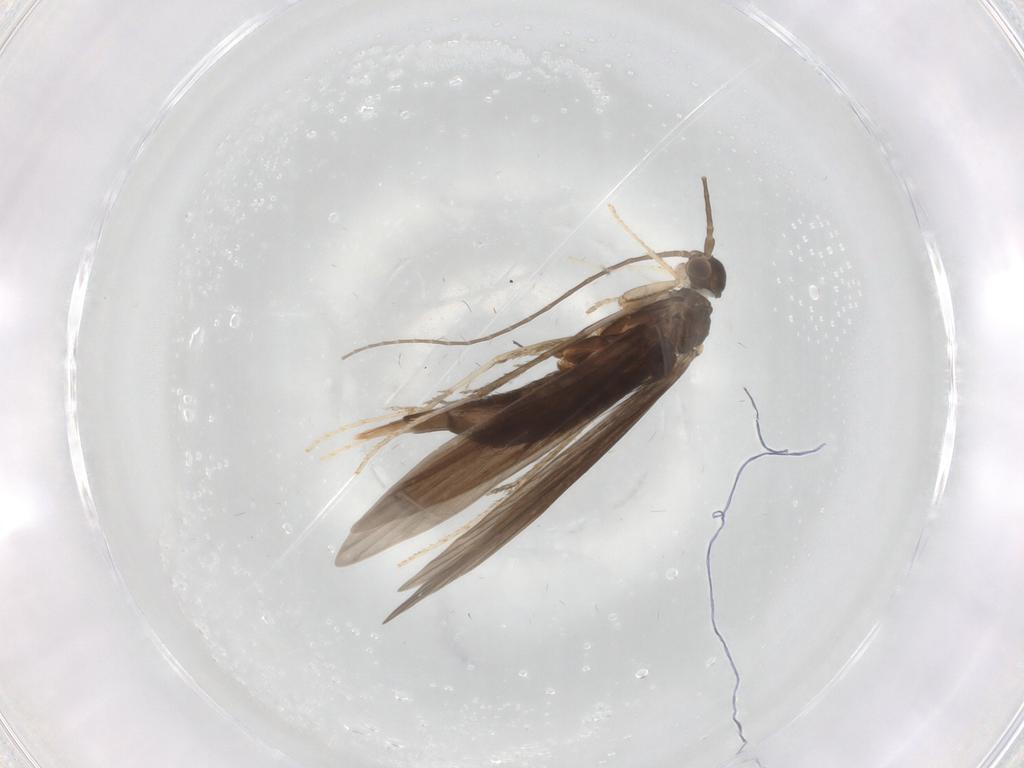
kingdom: Animalia
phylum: Arthropoda
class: Insecta
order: Trichoptera
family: Xiphocentronidae
